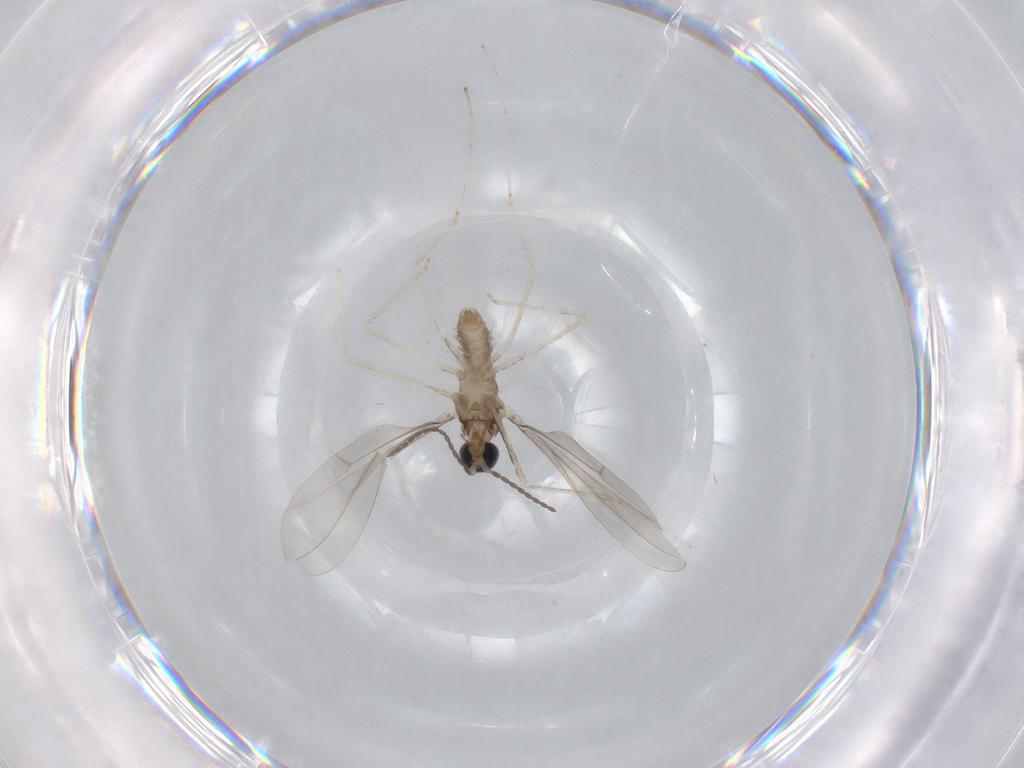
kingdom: Animalia
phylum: Arthropoda
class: Insecta
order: Diptera
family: Cecidomyiidae
